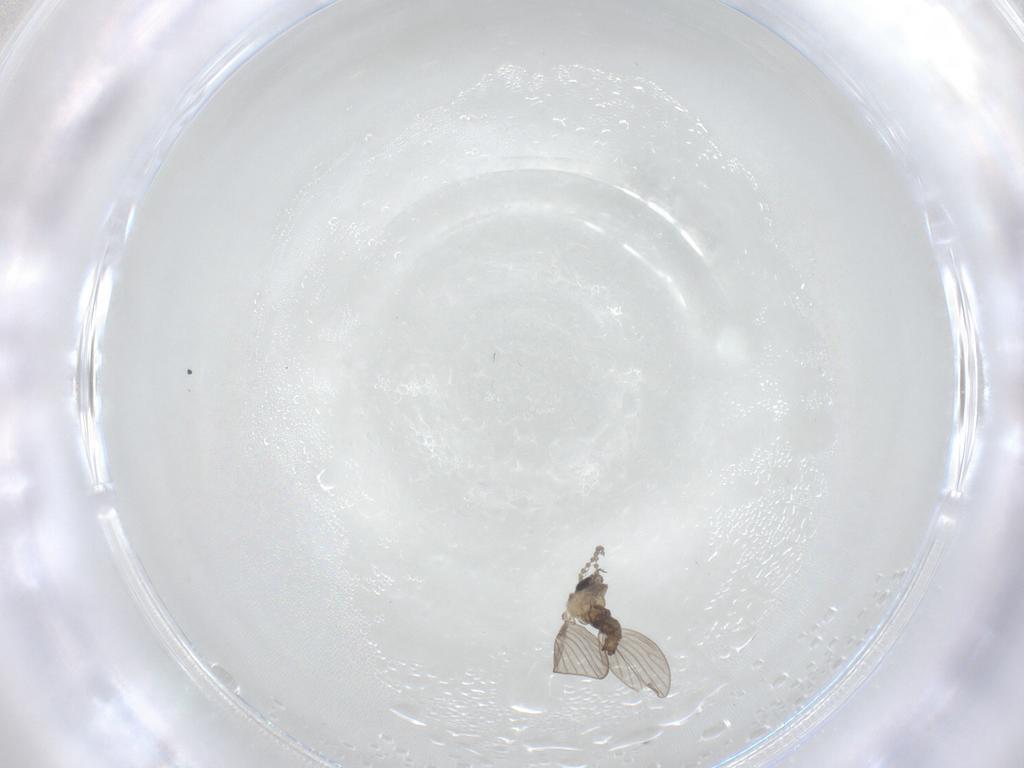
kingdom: Animalia
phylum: Arthropoda
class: Insecta
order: Diptera
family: Psychodidae
